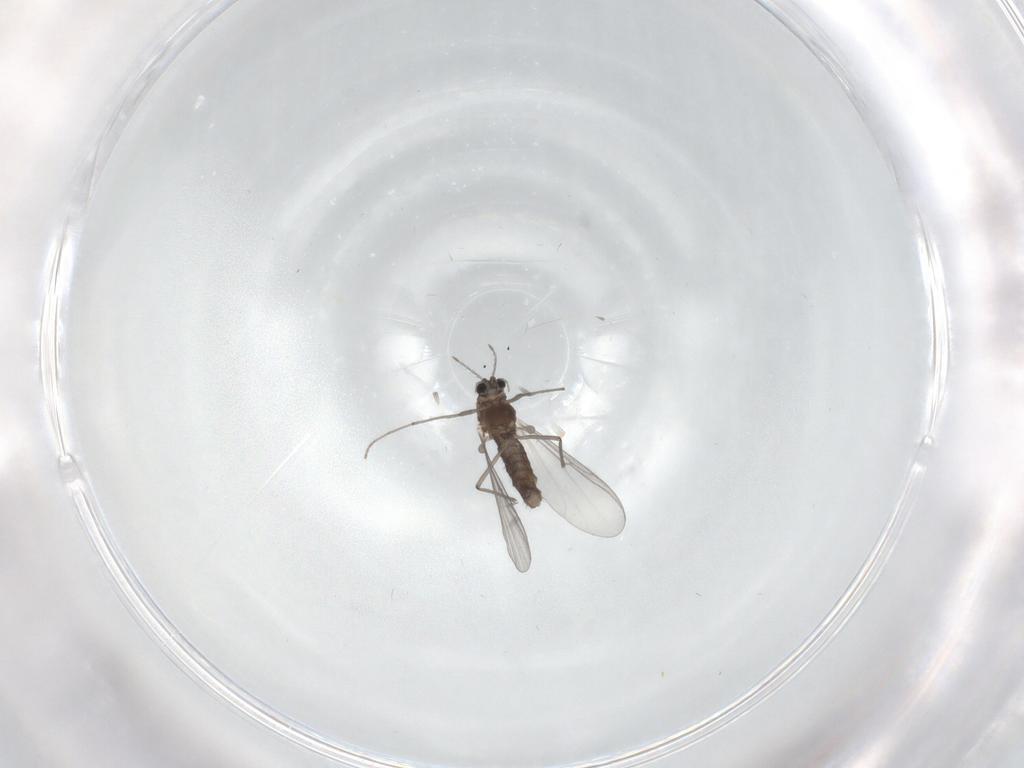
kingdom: Animalia
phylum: Arthropoda
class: Insecta
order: Diptera
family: Chironomidae
